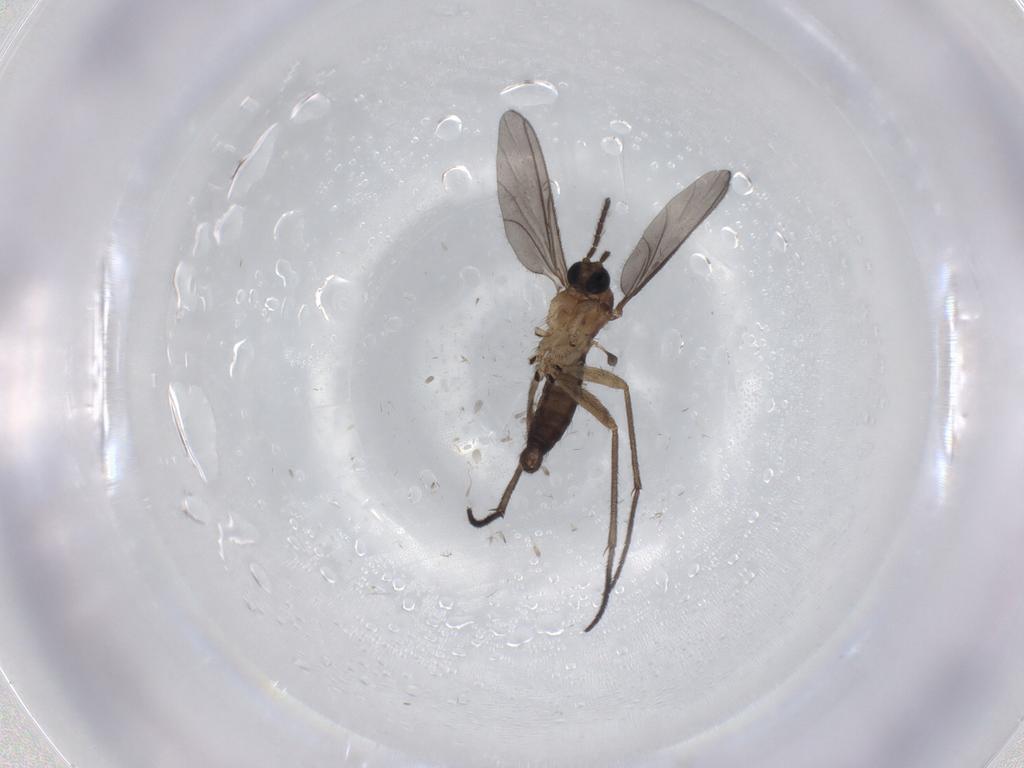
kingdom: Animalia
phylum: Arthropoda
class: Insecta
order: Diptera
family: Sciaridae
